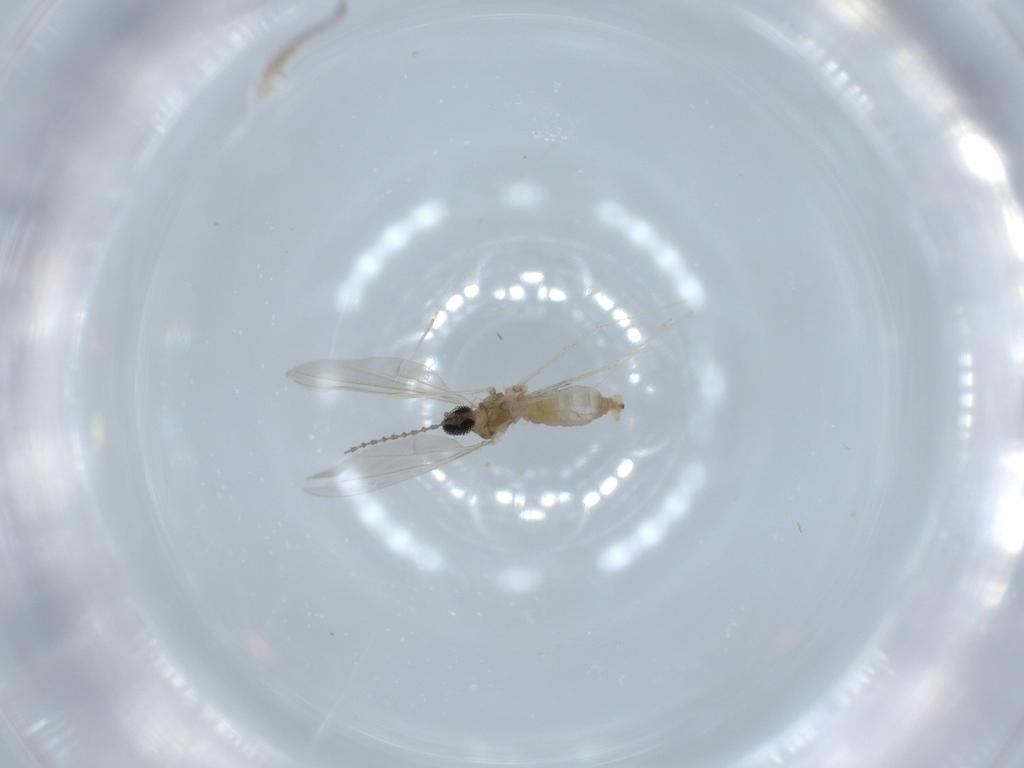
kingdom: Animalia
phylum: Arthropoda
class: Insecta
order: Diptera
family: Cecidomyiidae
